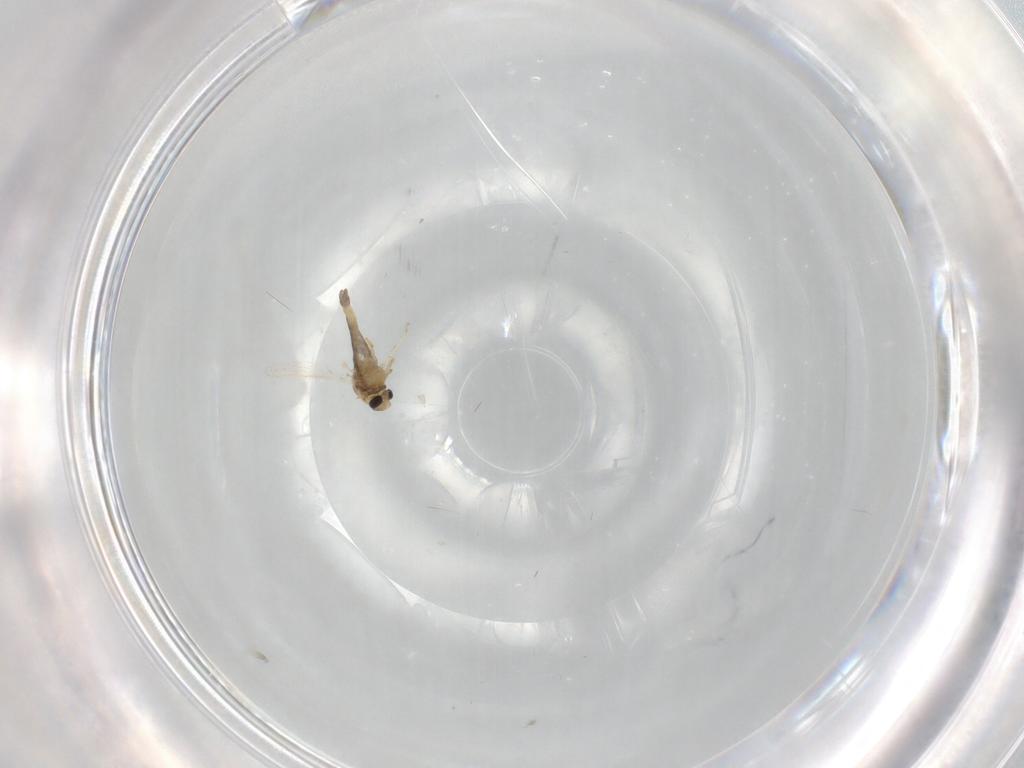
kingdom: Animalia
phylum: Arthropoda
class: Insecta
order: Diptera
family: Chironomidae
